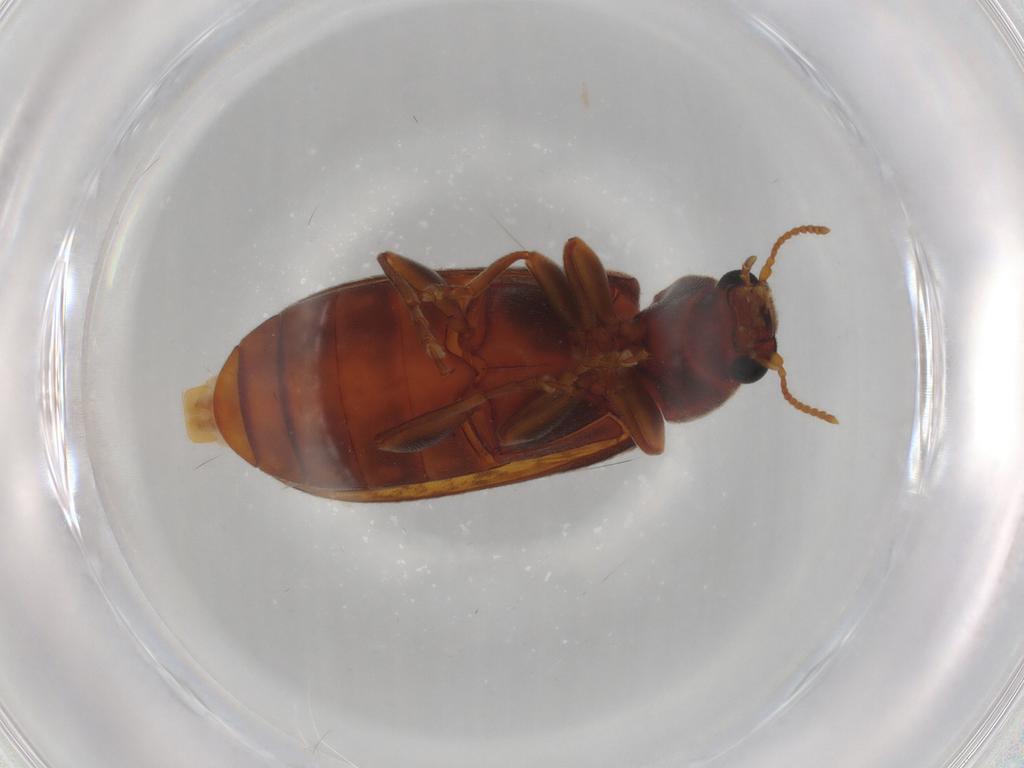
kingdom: Animalia
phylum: Arthropoda
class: Insecta
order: Coleoptera
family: Mycteridae
